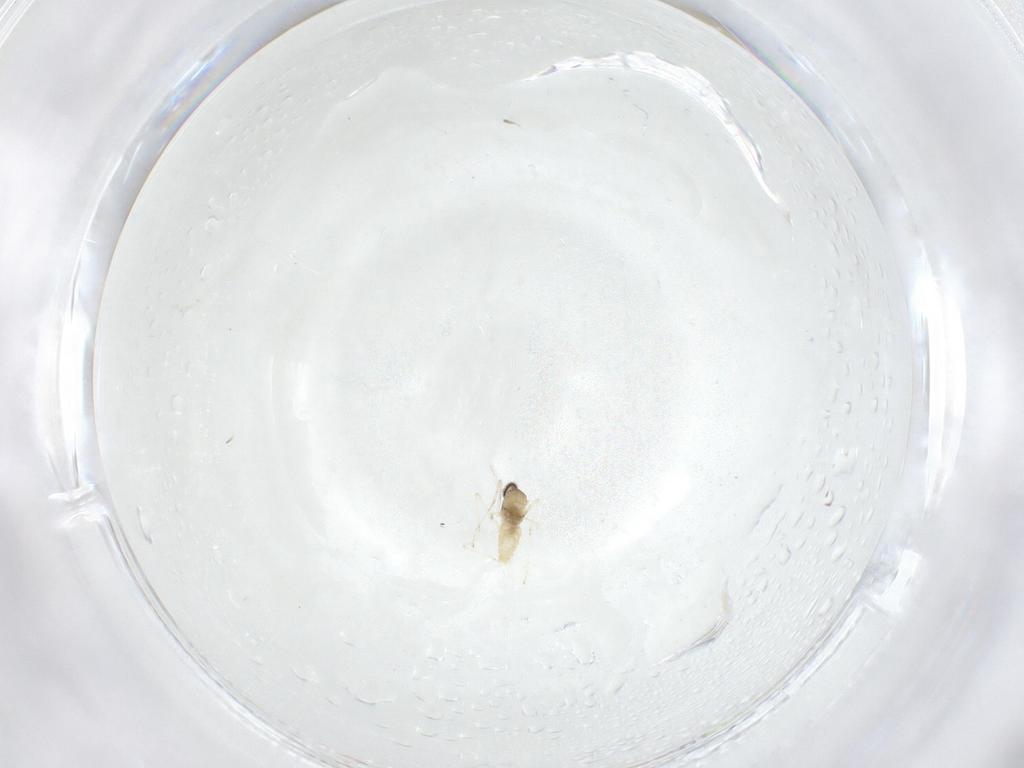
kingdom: Animalia
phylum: Arthropoda
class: Insecta
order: Diptera
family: Cecidomyiidae
